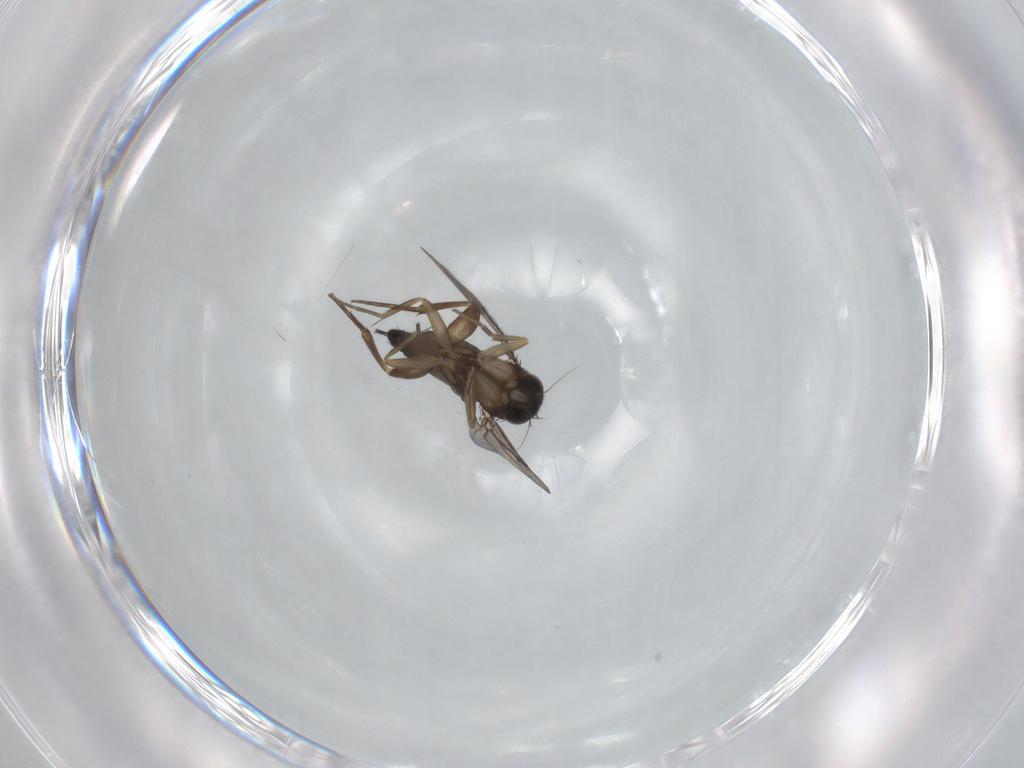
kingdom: Animalia
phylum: Arthropoda
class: Insecta
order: Diptera
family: Phoridae
